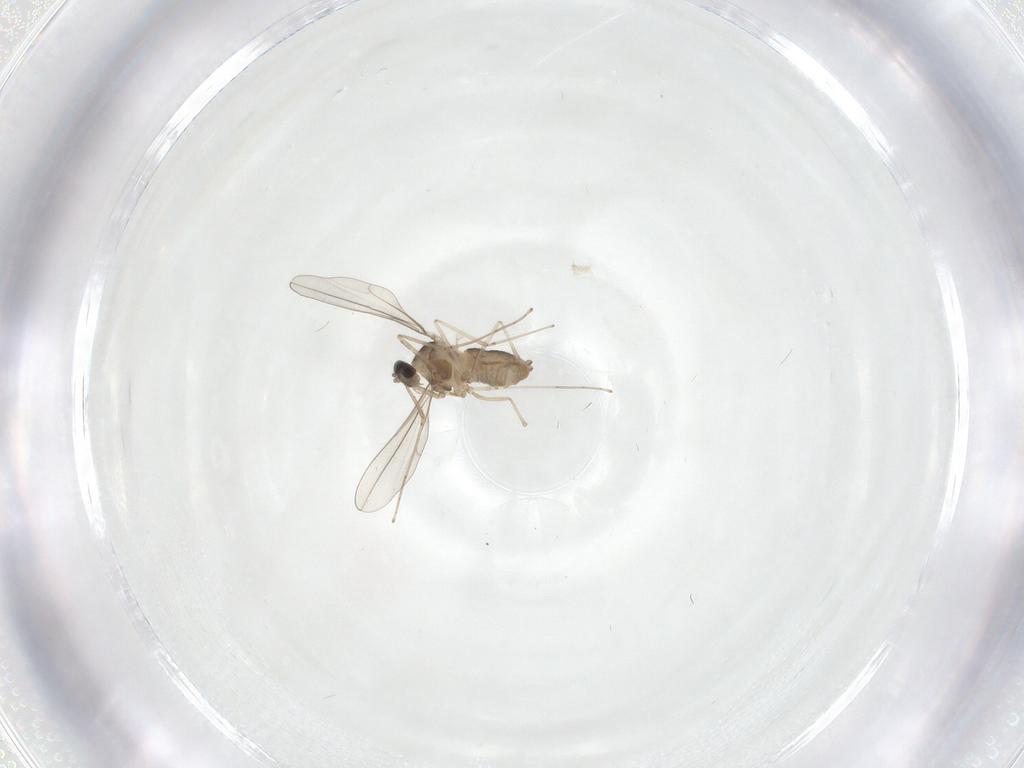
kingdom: Animalia
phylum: Arthropoda
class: Insecta
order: Diptera
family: Cecidomyiidae
